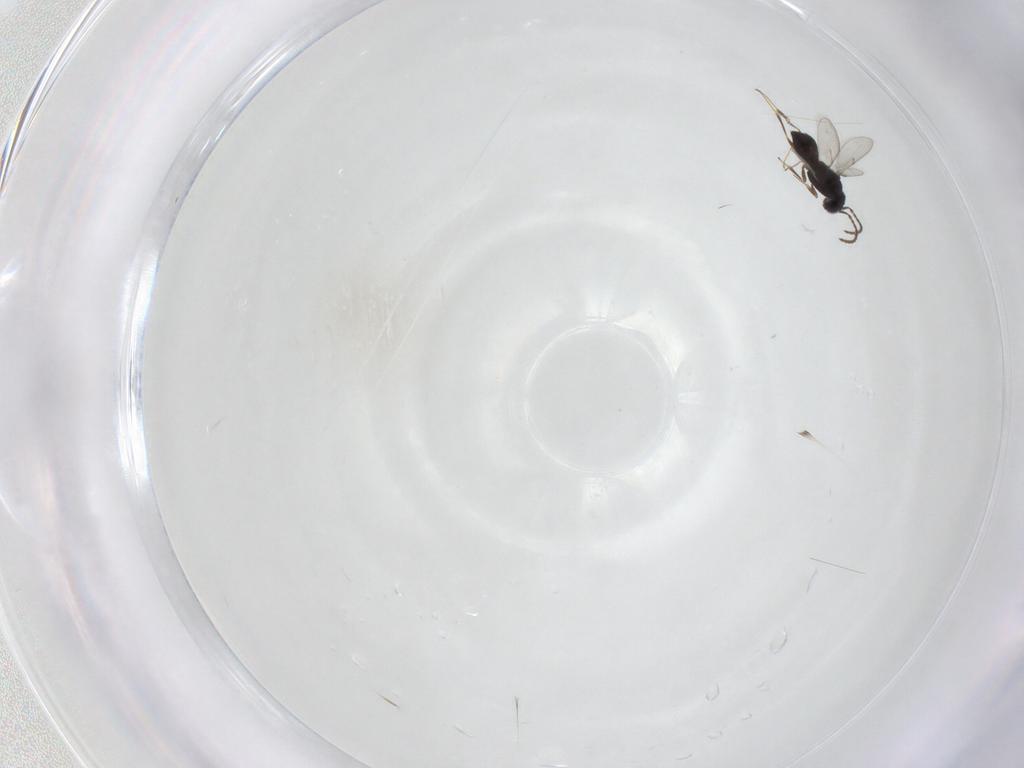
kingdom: Animalia
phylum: Arthropoda
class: Insecta
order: Hymenoptera
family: Scelionidae
